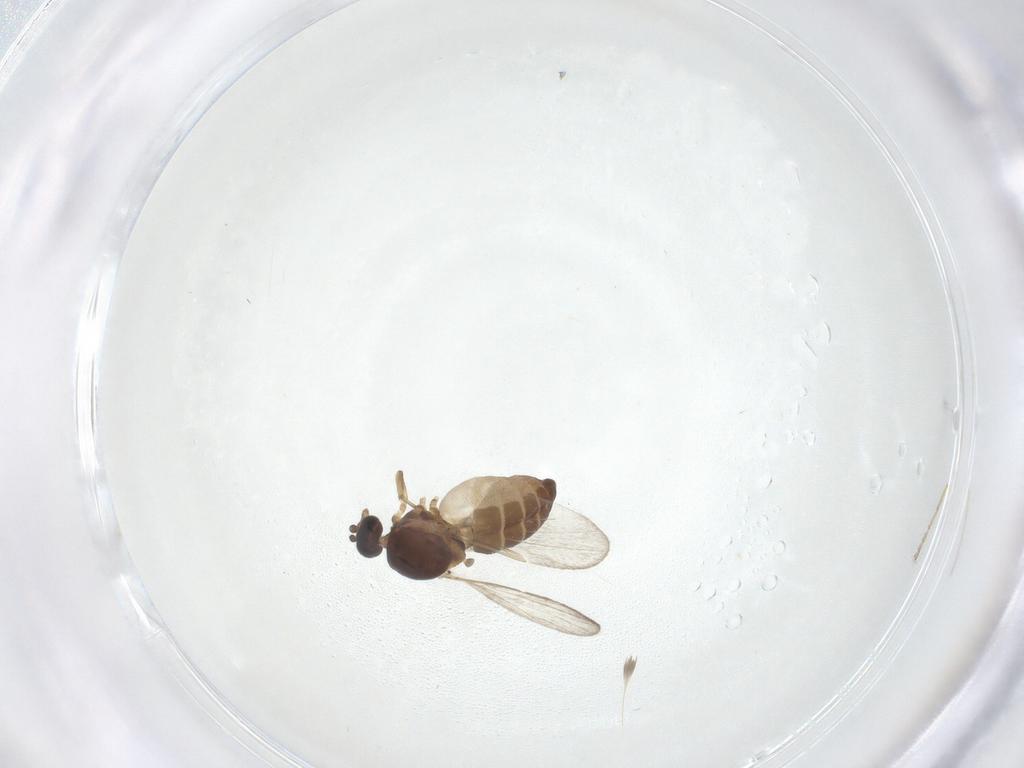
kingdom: Animalia
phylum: Arthropoda
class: Insecta
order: Diptera
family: Ceratopogonidae
